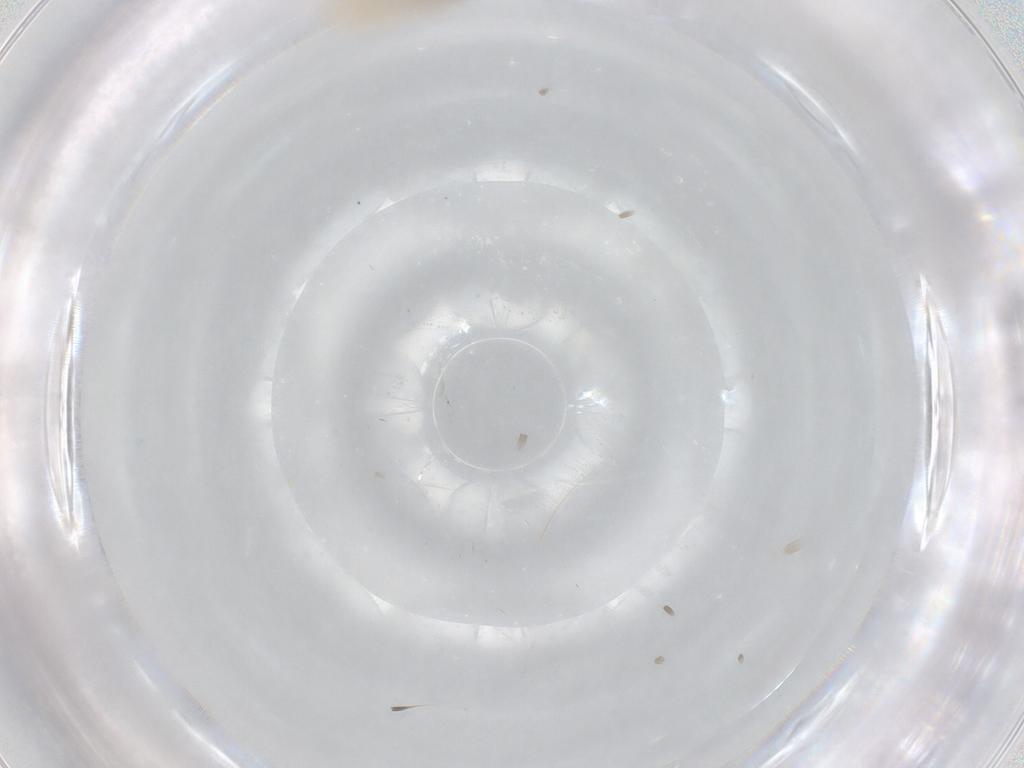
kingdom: Animalia
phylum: Arthropoda
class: Insecta
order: Diptera
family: Cecidomyiidae
